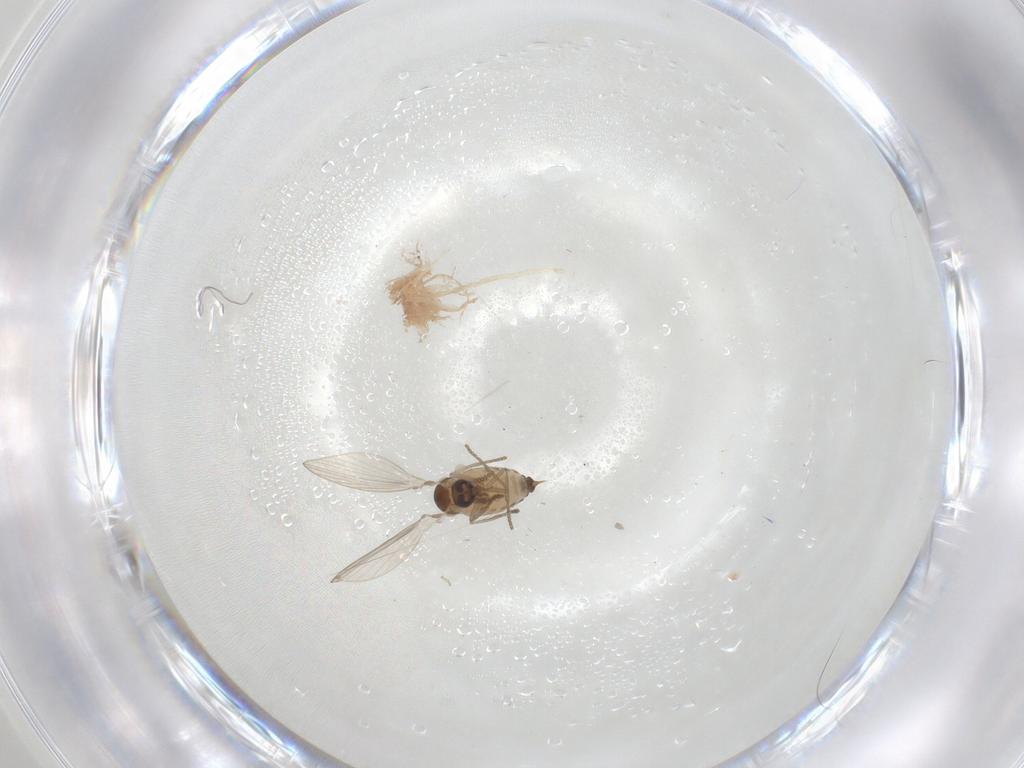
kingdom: Animalia
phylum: Arthropoda
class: Insecta
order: Diptera
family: Psychodidae
